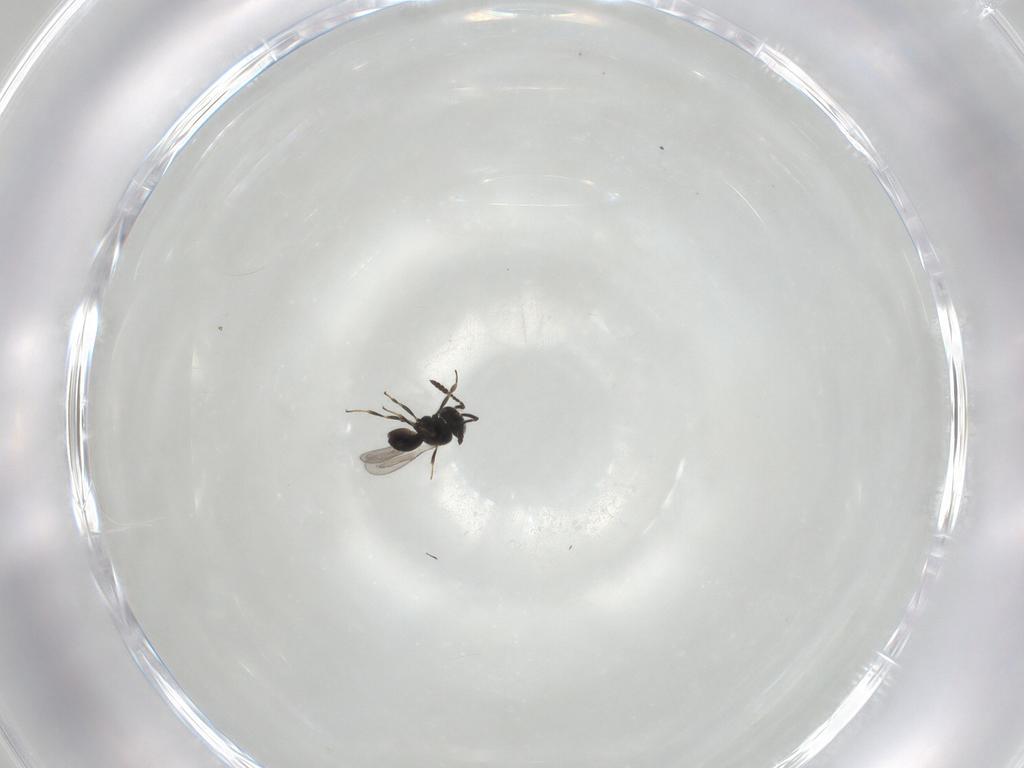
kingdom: Animalia
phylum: Arthropoda
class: Insecta
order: Hymenoptera
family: Scelionidae
